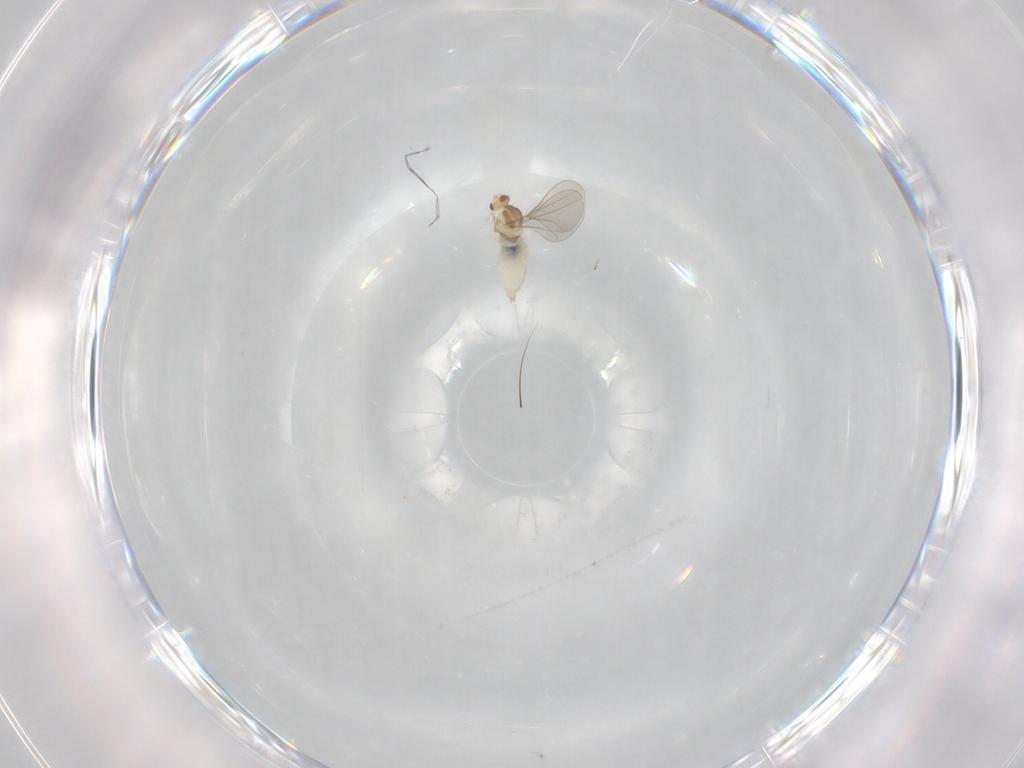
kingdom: Animalia
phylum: Arthropoda
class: Insecta
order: Diptera
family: Cecidomyiidae
